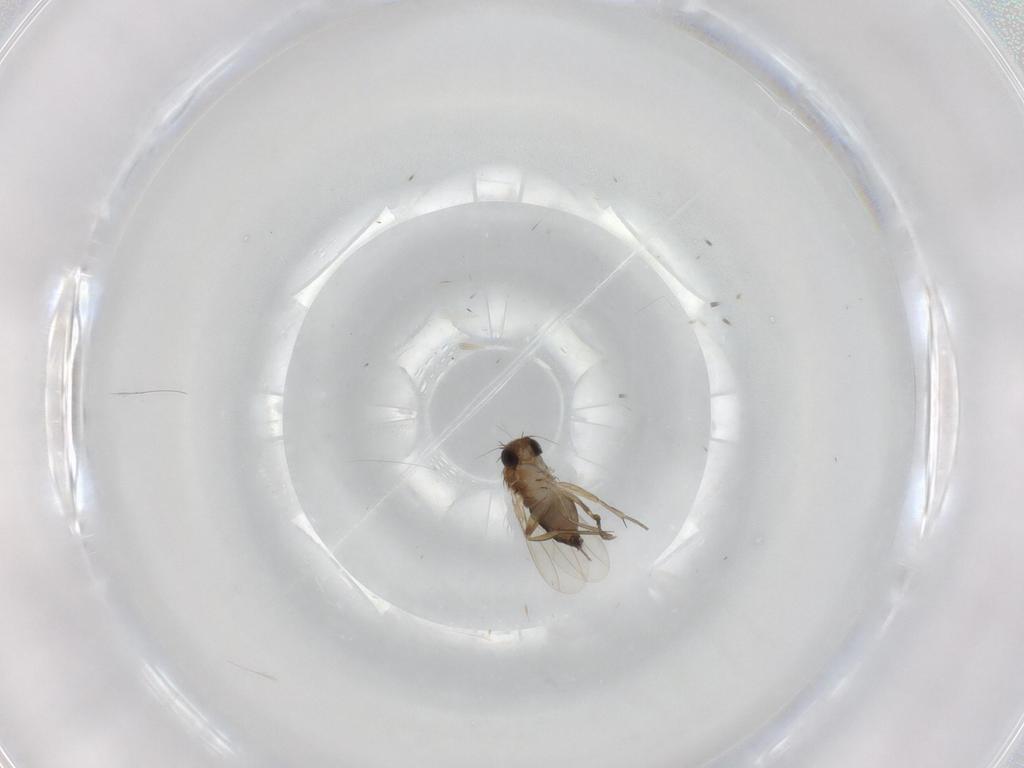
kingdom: Animalia
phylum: Arthropoda
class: Insecta
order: Diptera
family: Phoridae
